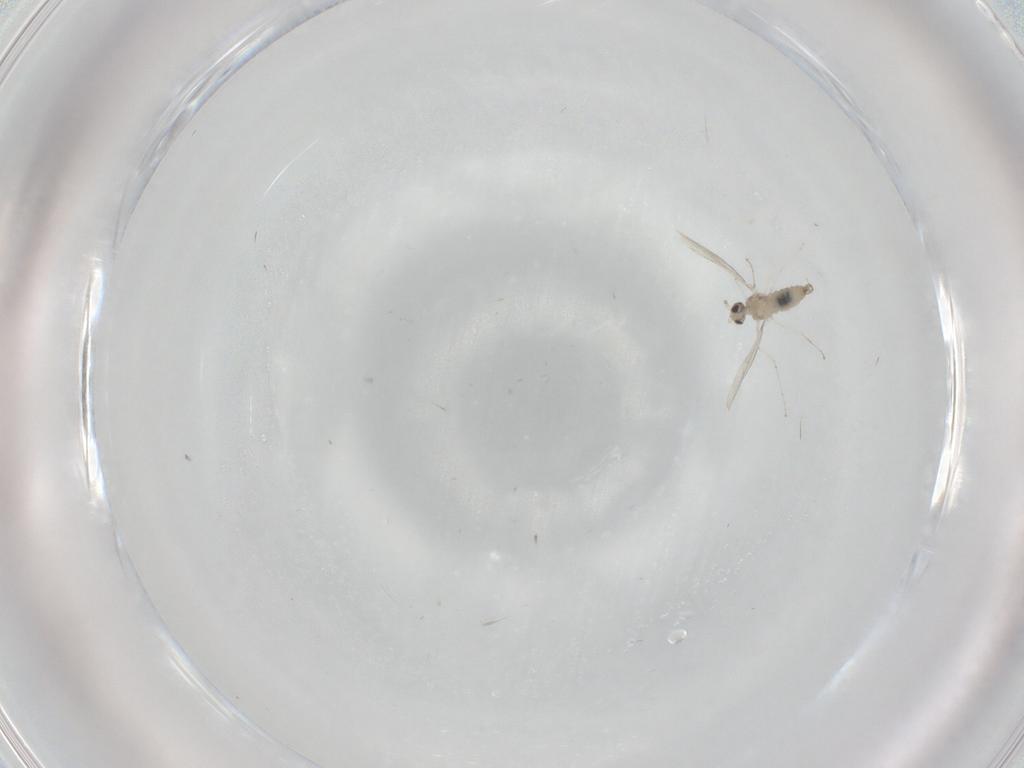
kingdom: Animalia
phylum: Arthropoda
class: Insecta
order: Diptera
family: Cecidomyiidae
